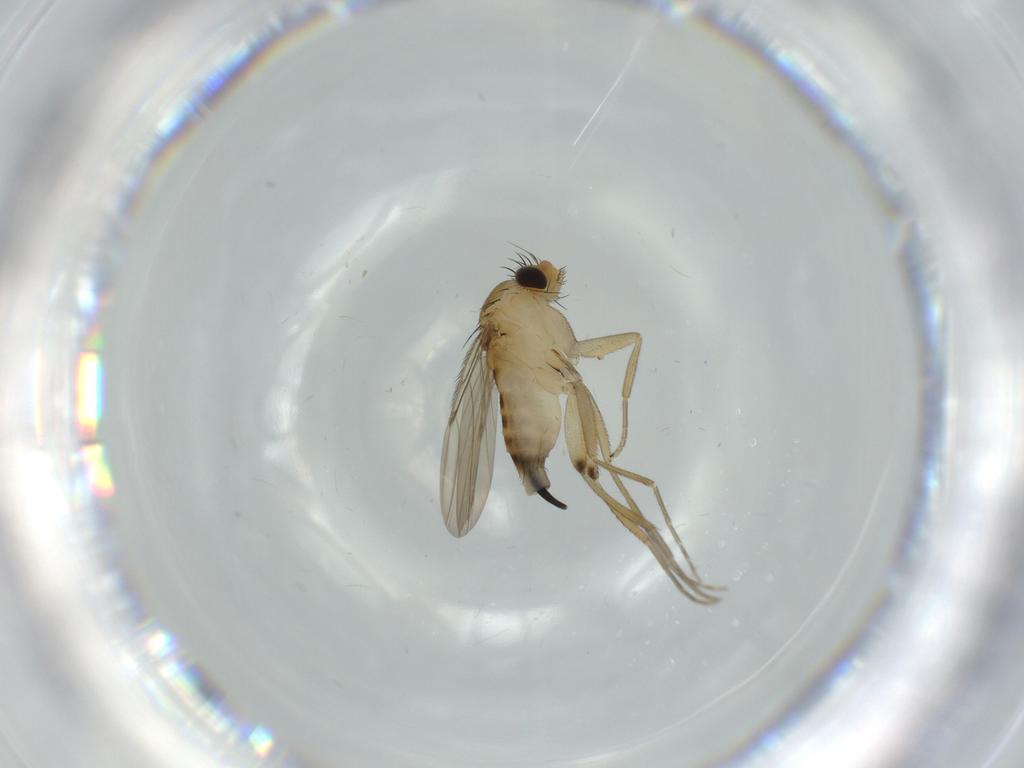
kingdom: Animalia
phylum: Arthropoda
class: Insecta
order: Diptera
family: Phoridae
